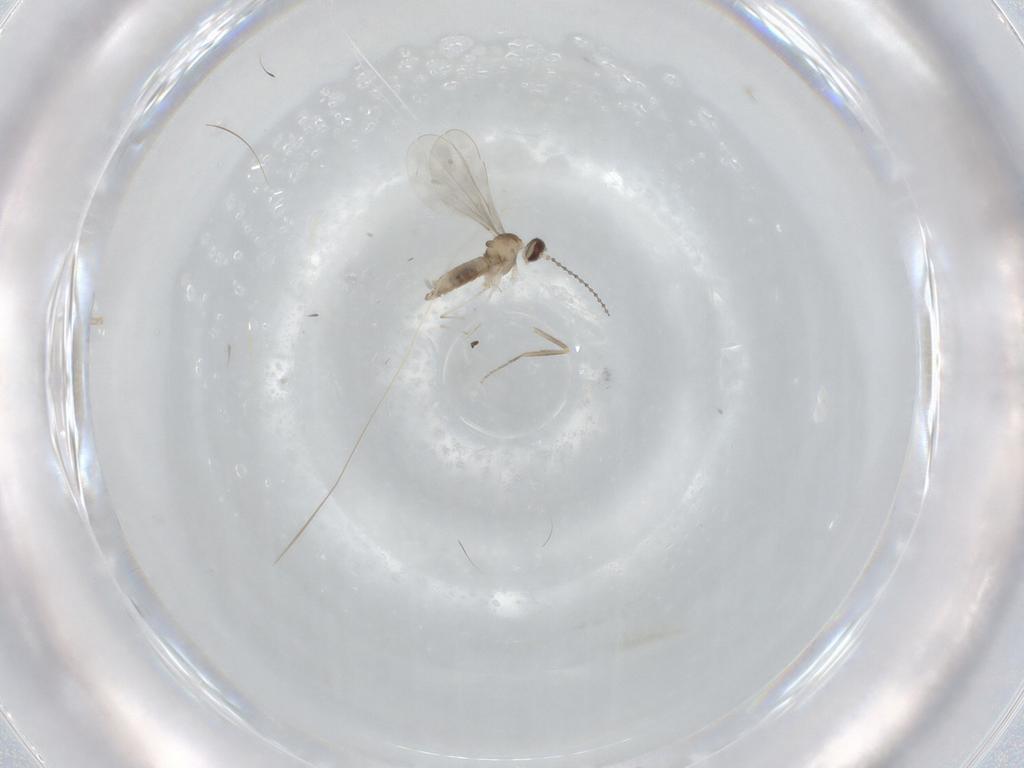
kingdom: Animalia
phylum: Arthropoda
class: Insecta
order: Diptera
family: Cecidomyiidae
